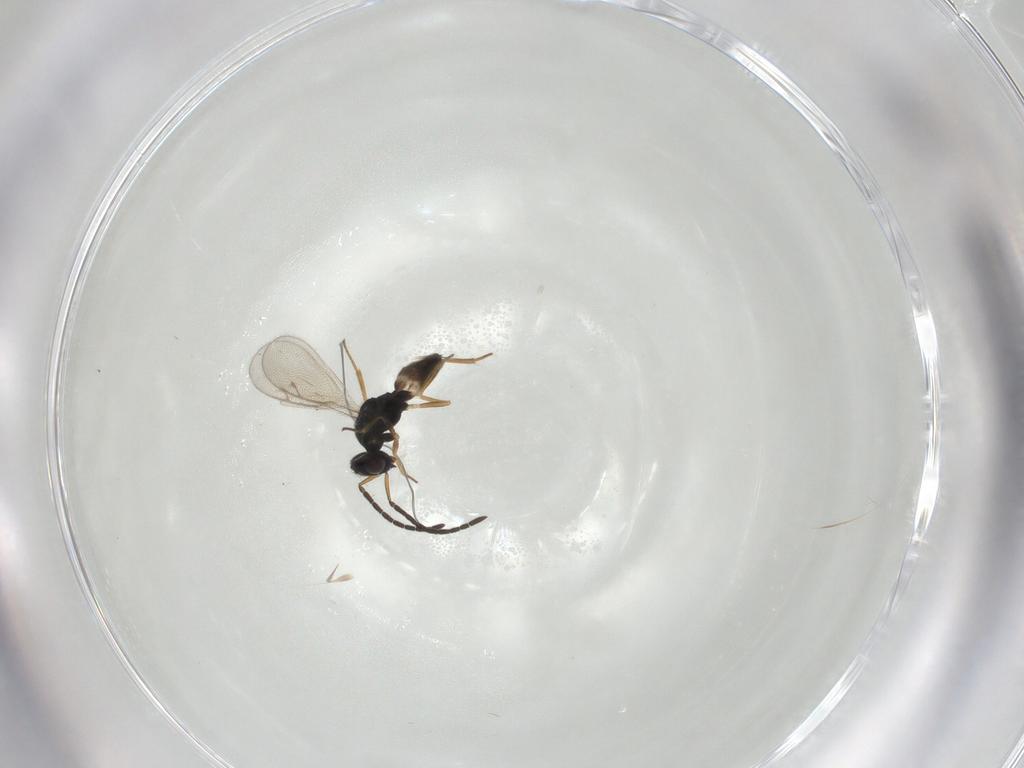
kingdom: Animalia
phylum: Arthropoda
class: Insecta
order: Hymenoptera
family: Pteromalidae
